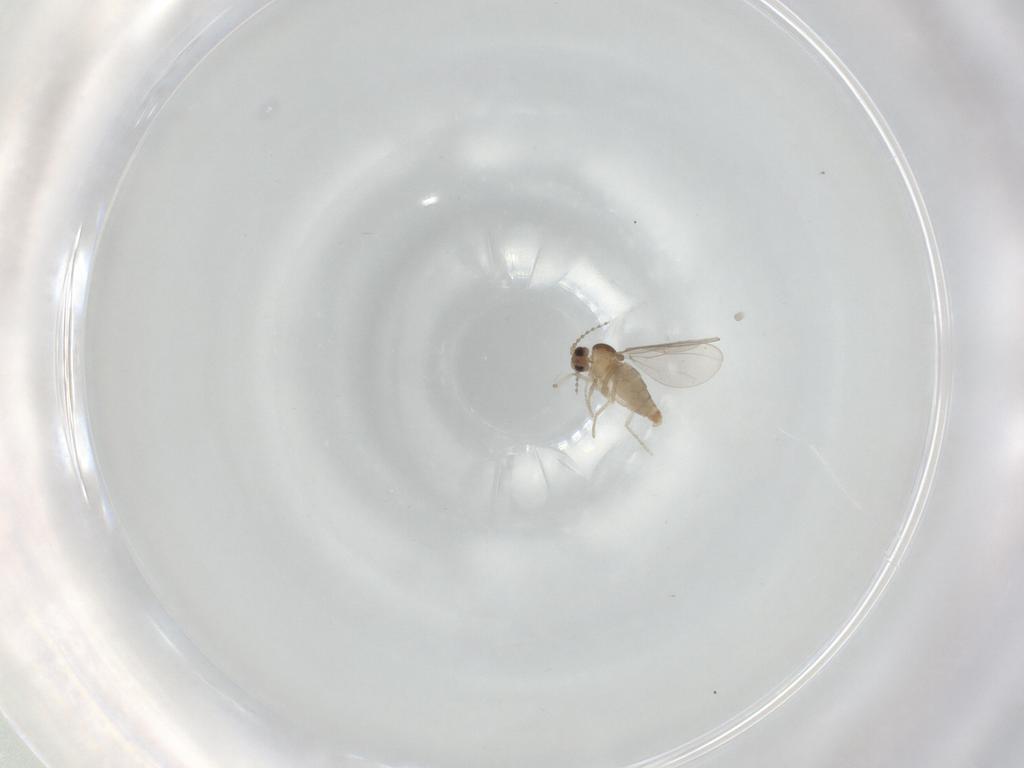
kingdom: Animalia
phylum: Arthropoda
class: Insecta
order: Diptera
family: Cecidomyiidae
